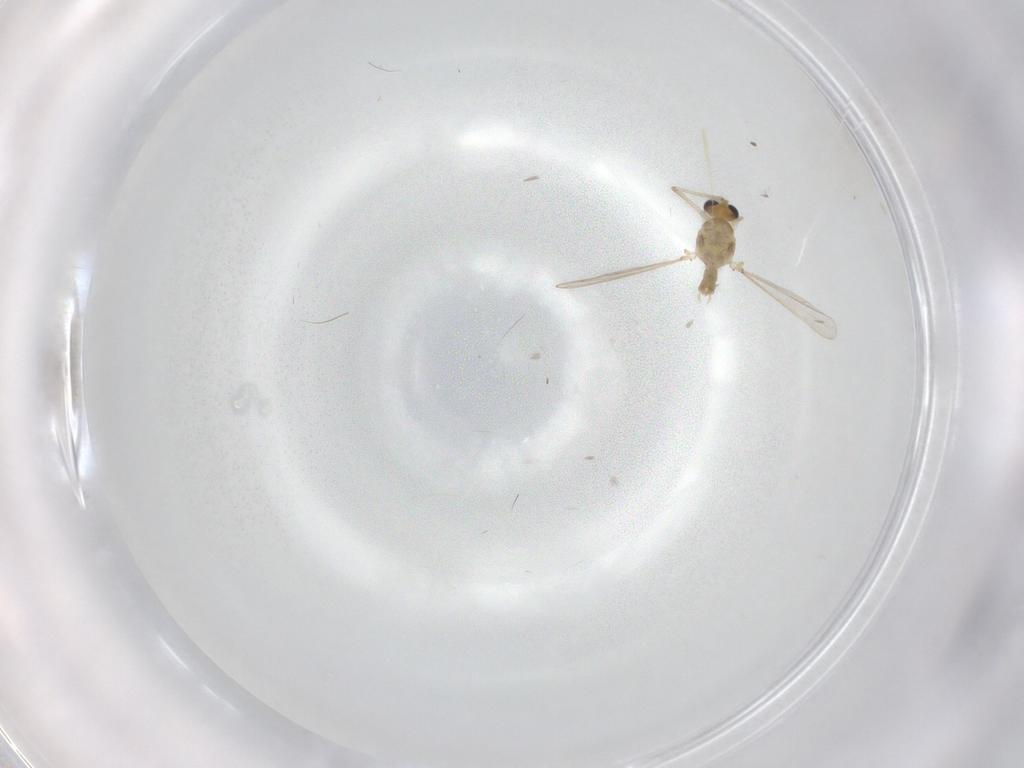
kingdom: Animalia
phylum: Arthropoda
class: Insecta
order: Diptera
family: Chironomidae
